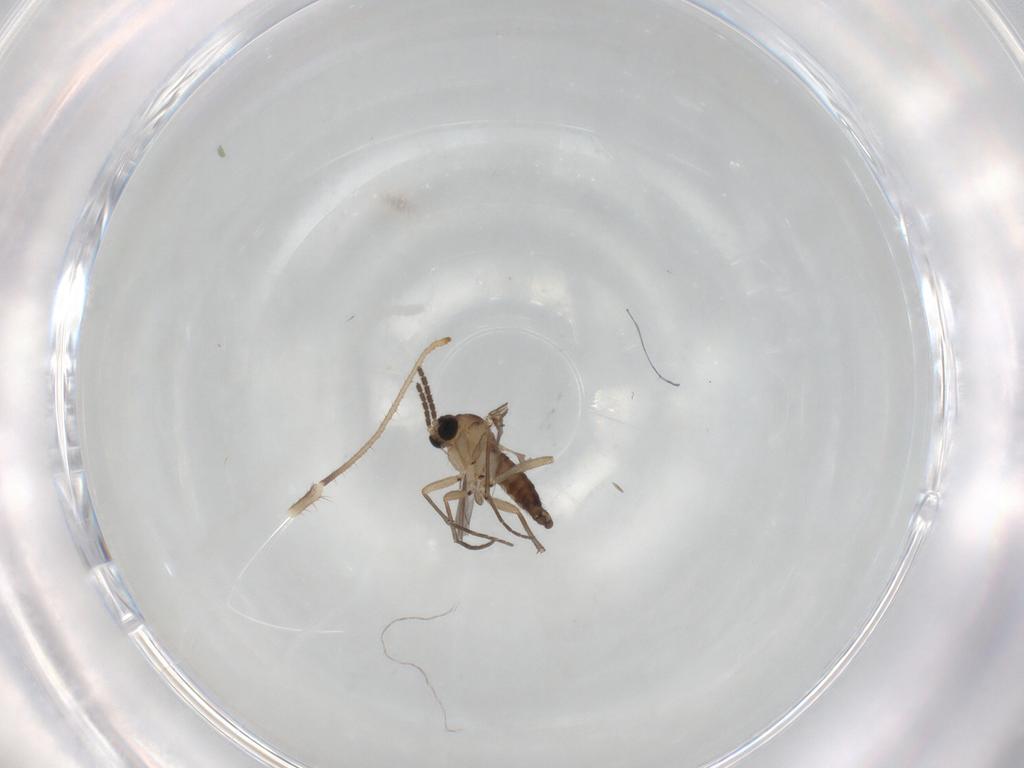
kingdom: Animalia
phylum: Arthropoda
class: Insecta
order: Diptera
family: Sciaridae
